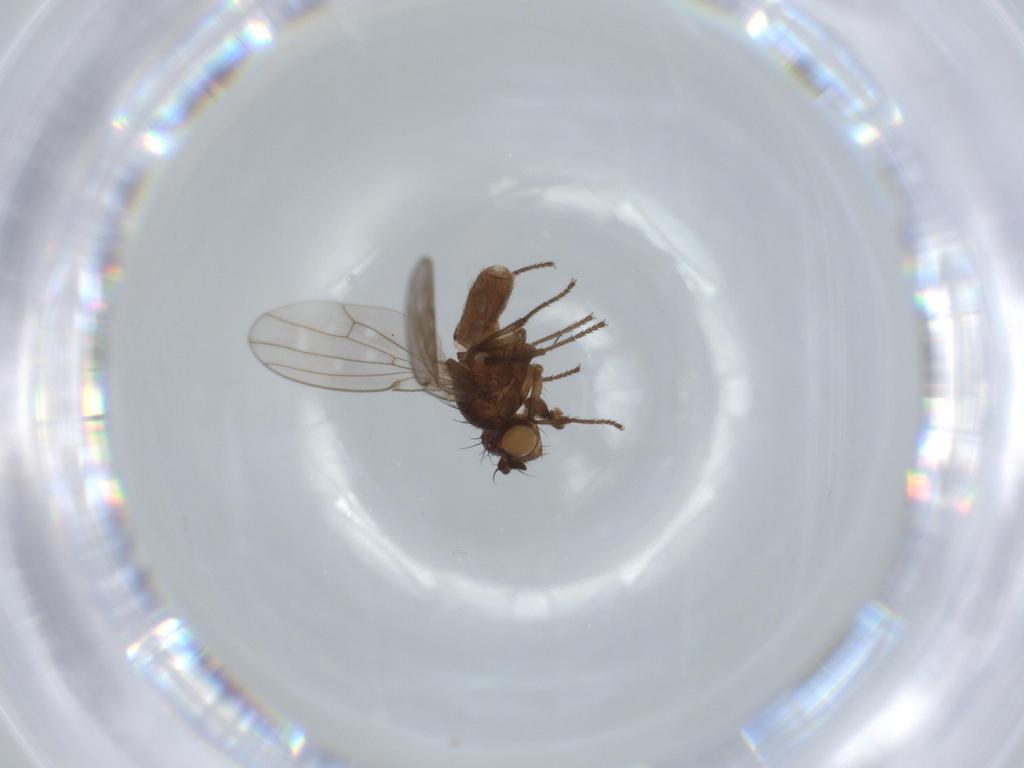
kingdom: Animalia
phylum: Arthropoda
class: Insecta
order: Diptera
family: Ephydridae
